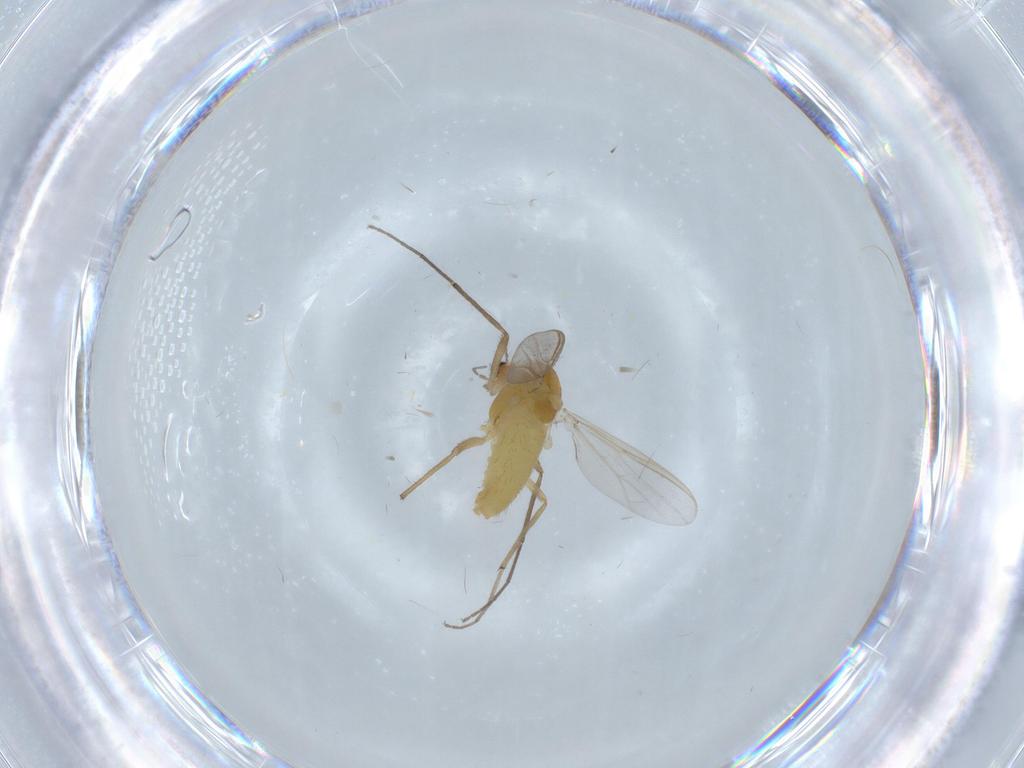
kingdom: Animalia
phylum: Arthropoda
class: Insecta
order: Diptera
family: Chironomidae
